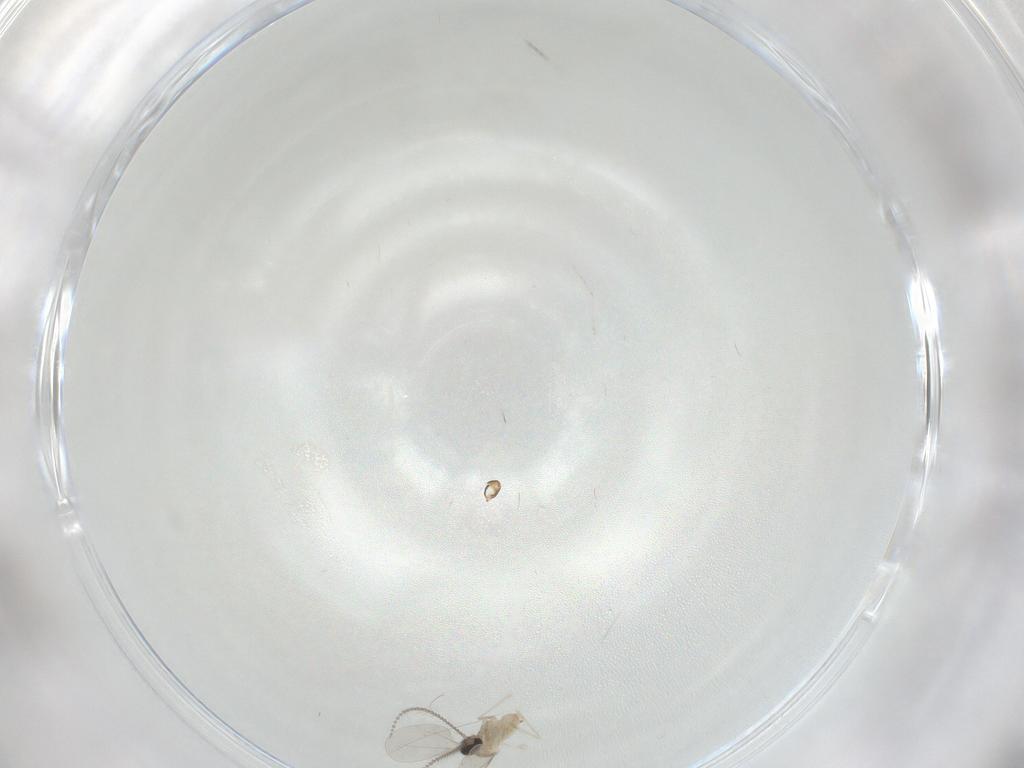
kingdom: Animalia
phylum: Arthropoda
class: Insecta
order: Diptera
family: Cecidomyiidae
